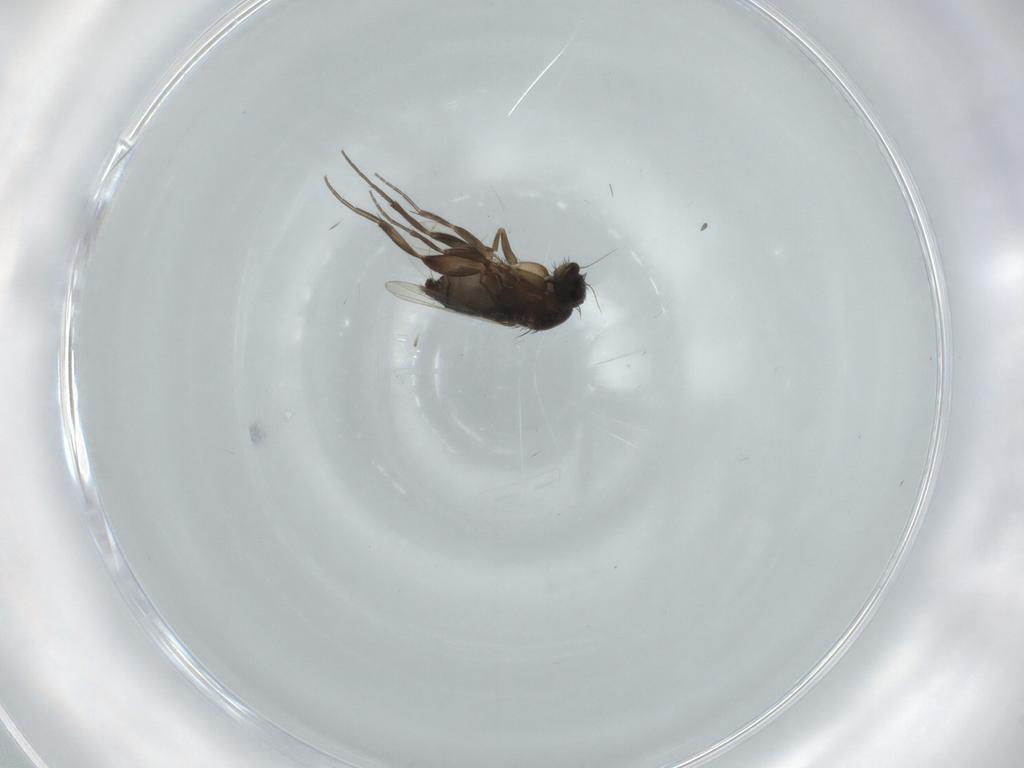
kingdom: Animalia
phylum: Arthropoda
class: Insecta
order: Diptera
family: Phoridae
